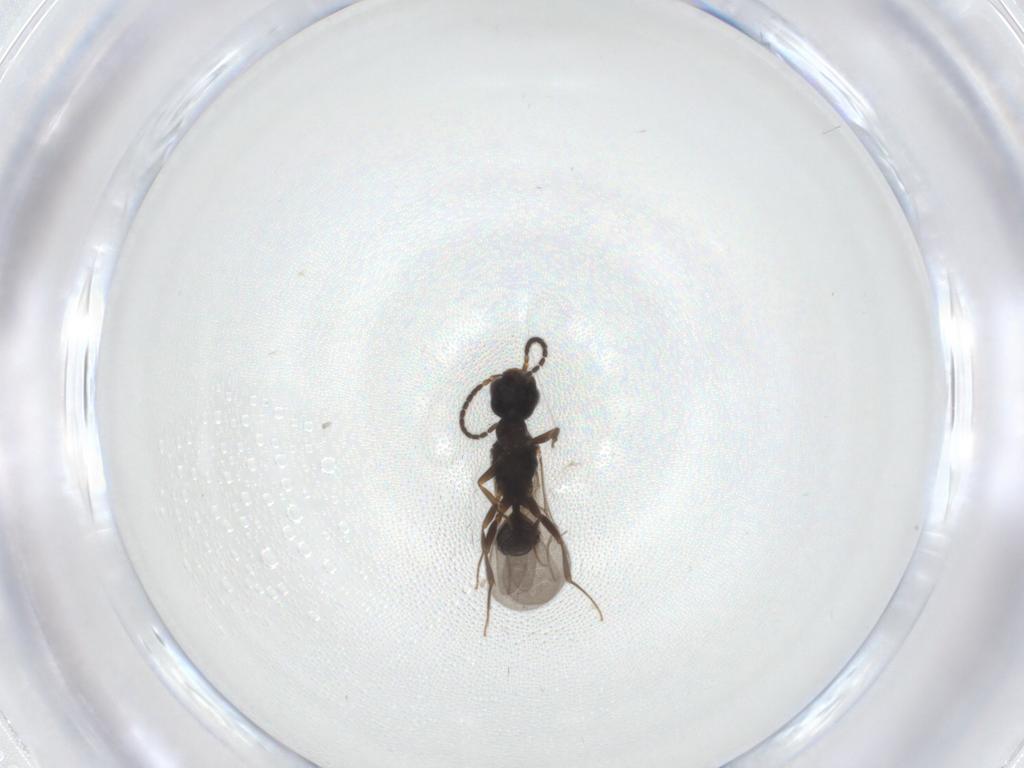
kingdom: Animalia
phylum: Arthropoda
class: Insecta
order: Hymenoptera
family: Bethylidae
